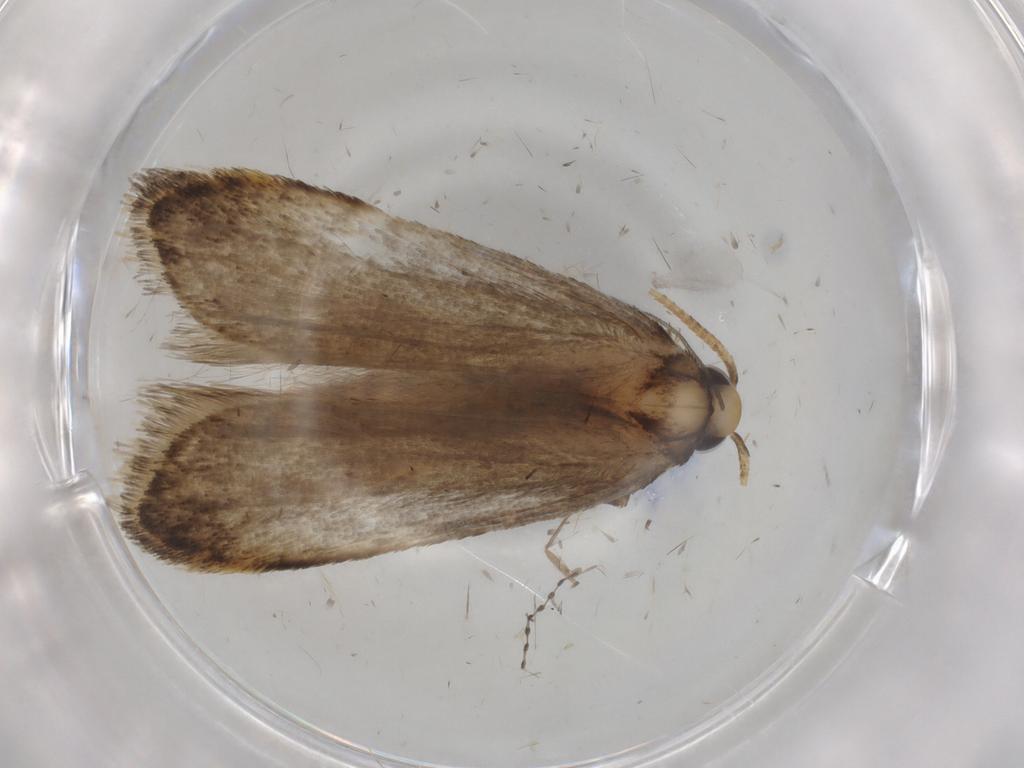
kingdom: Animalia
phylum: Arthropoda
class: Insecta
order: Lepidoptera
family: Autostichidae
